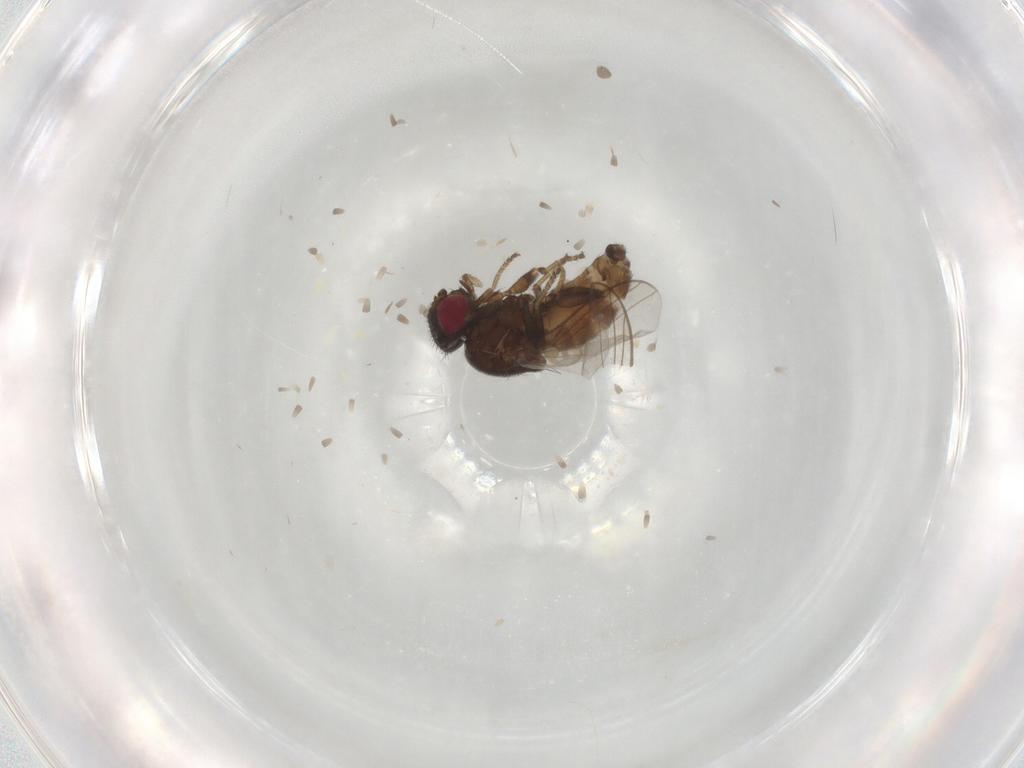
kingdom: Animalia
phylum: Arthropoda
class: Insecta
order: Diptera
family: Chloropidae
